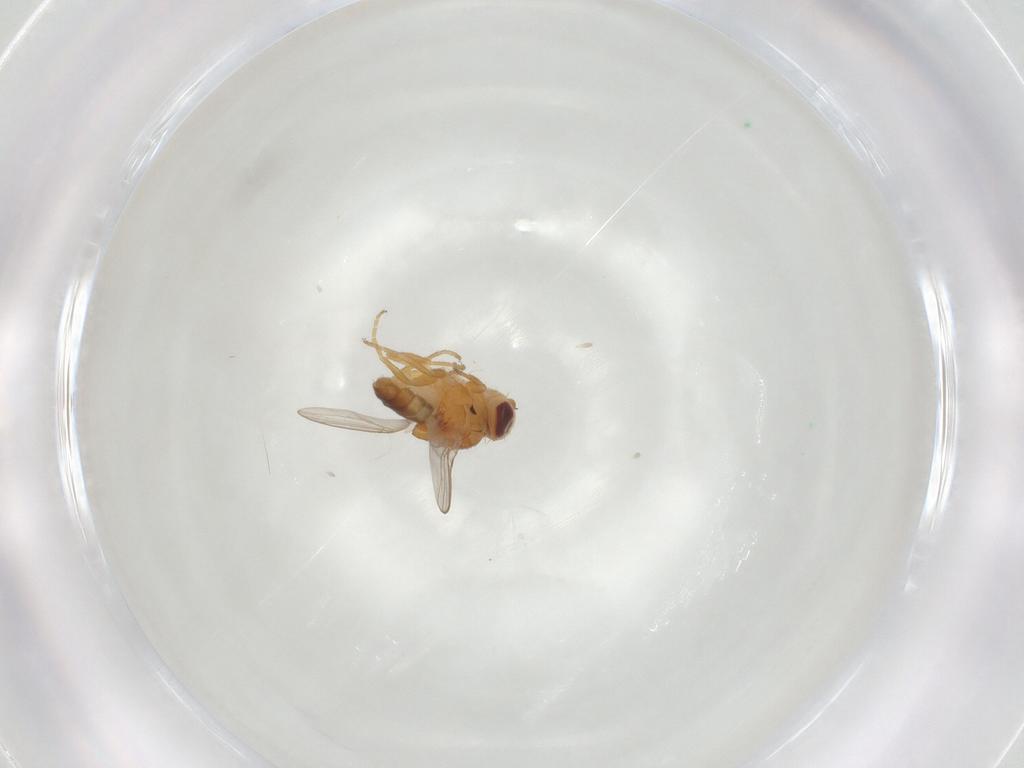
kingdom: Animalia
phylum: Arthropoda
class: Insecta
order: Diptera
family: Chloropidae
